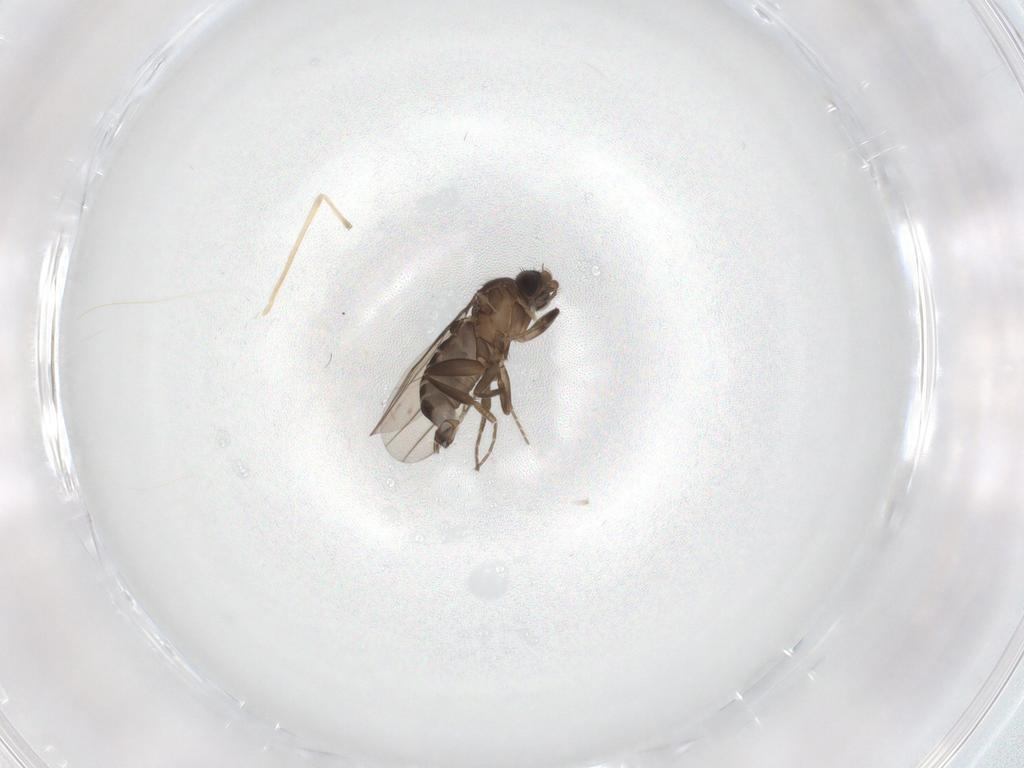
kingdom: Animalia
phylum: Arthropoda
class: Insecta
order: Diptera
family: Phoridae
